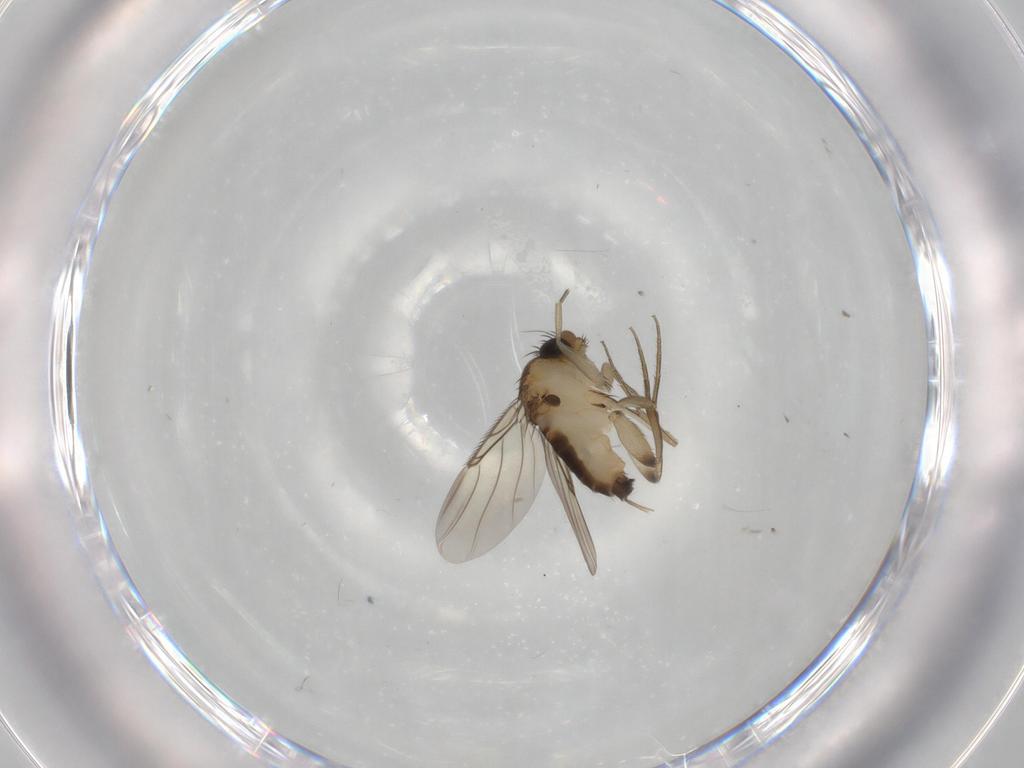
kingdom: Animalia
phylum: Arthropoda
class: Insecta
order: Diptera
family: Phoridae
